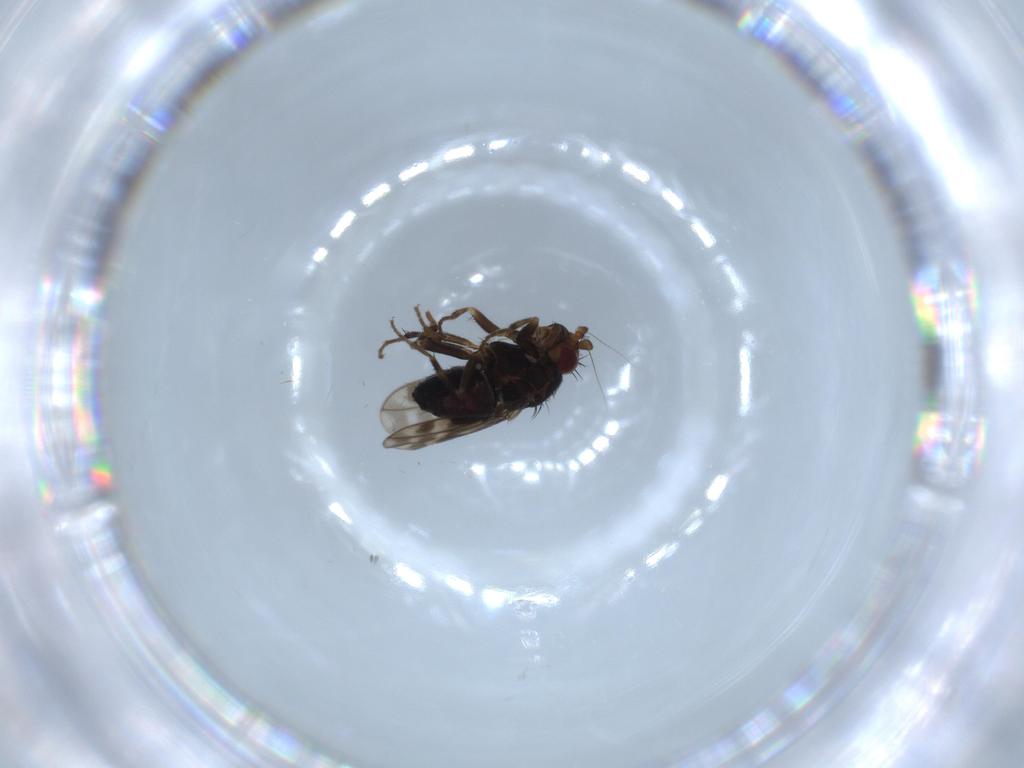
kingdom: Animalia
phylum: Arthropoda
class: Insecta
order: Diptera
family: Sphaeroceridae
